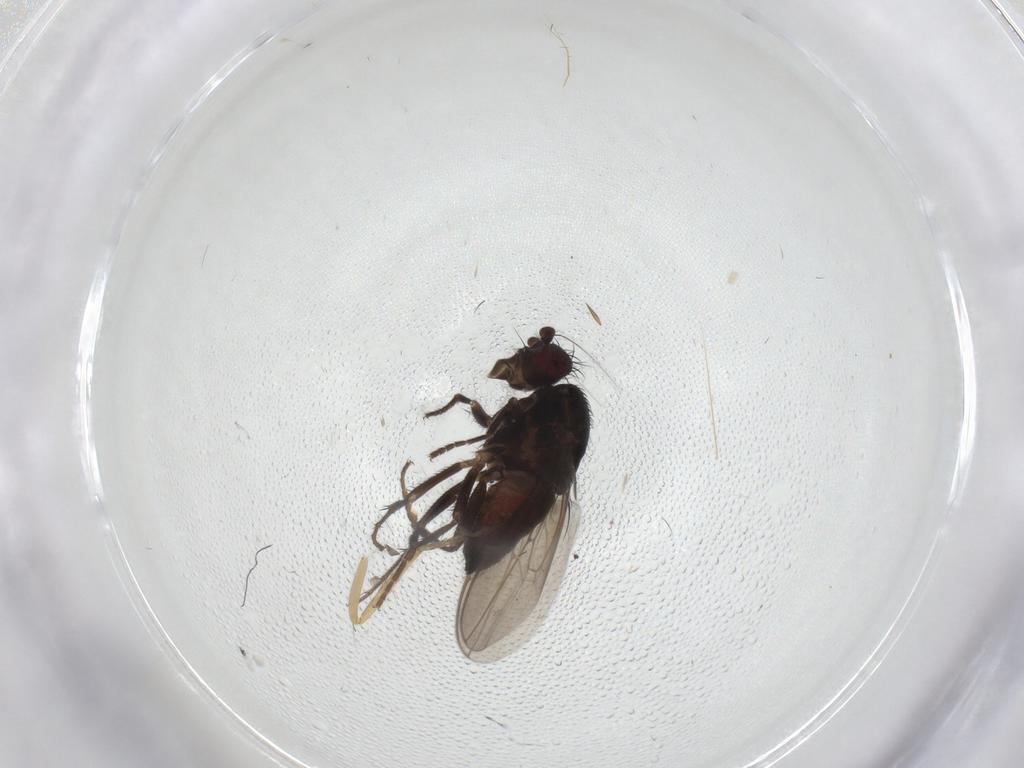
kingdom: Animalia
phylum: Arthropoda
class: Insecta
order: Diptera
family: Sphaeroceridae
